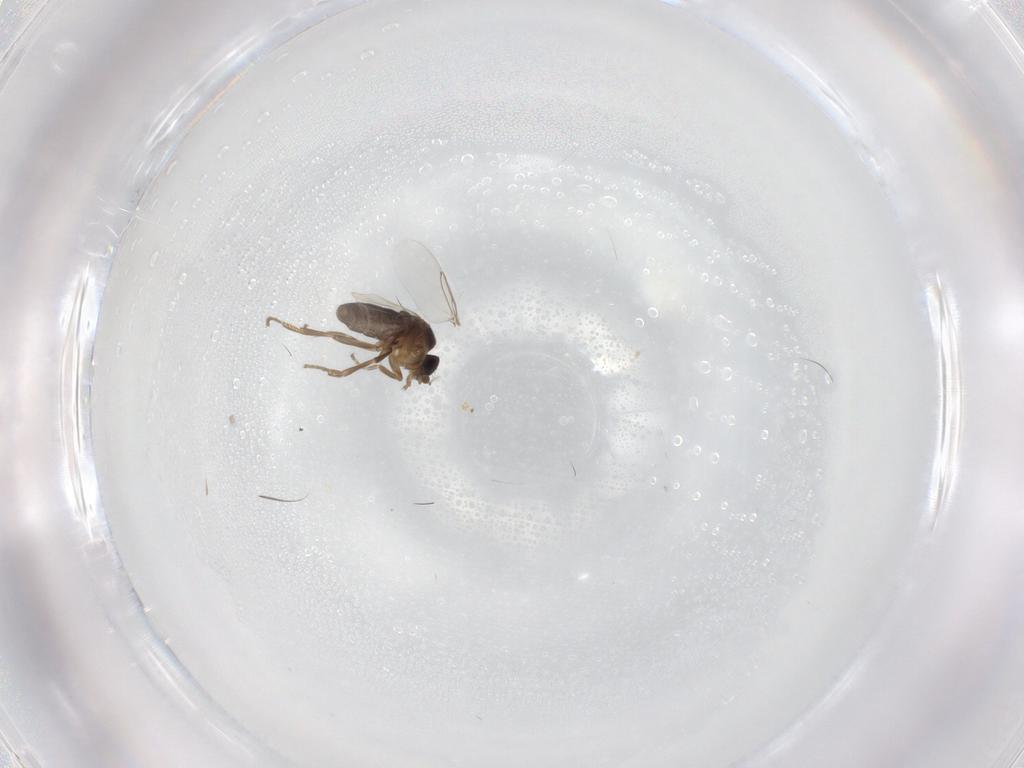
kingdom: Animalia
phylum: Arthropoda
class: Insecta
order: Diptera
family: Phoridae
